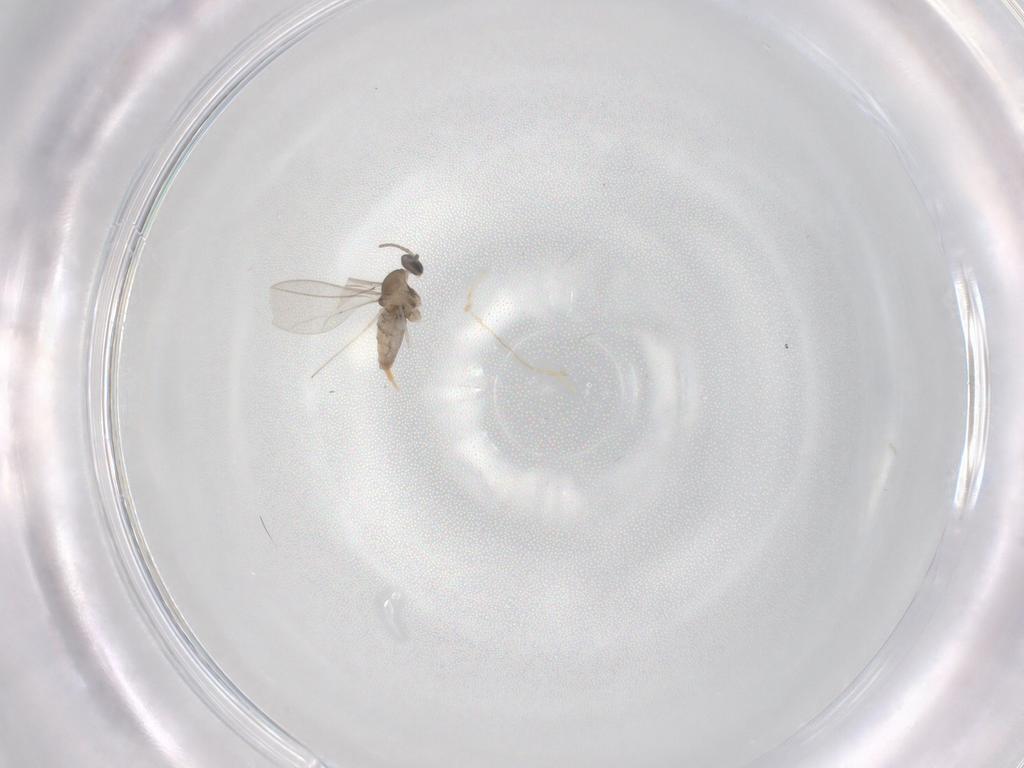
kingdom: Animalia
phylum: Arthropoda
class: Insecta
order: Diptera
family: Cecidomyiidae
